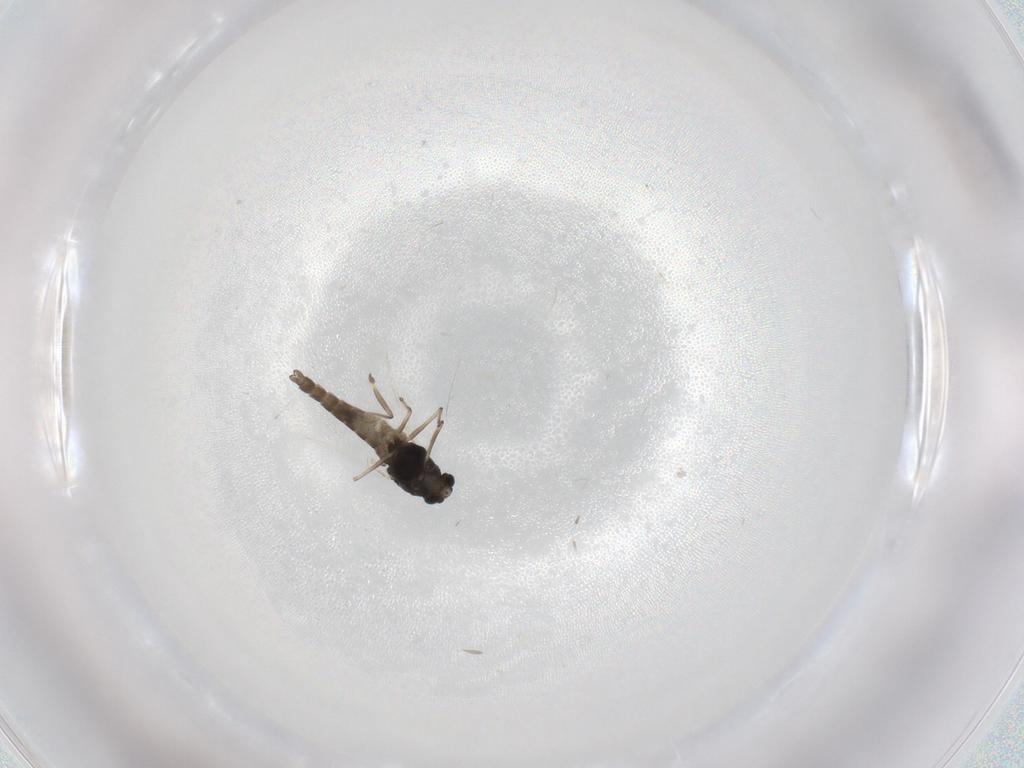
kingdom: Animalia
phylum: Arthropoda
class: Insecta
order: Diptera
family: Chironomidae
